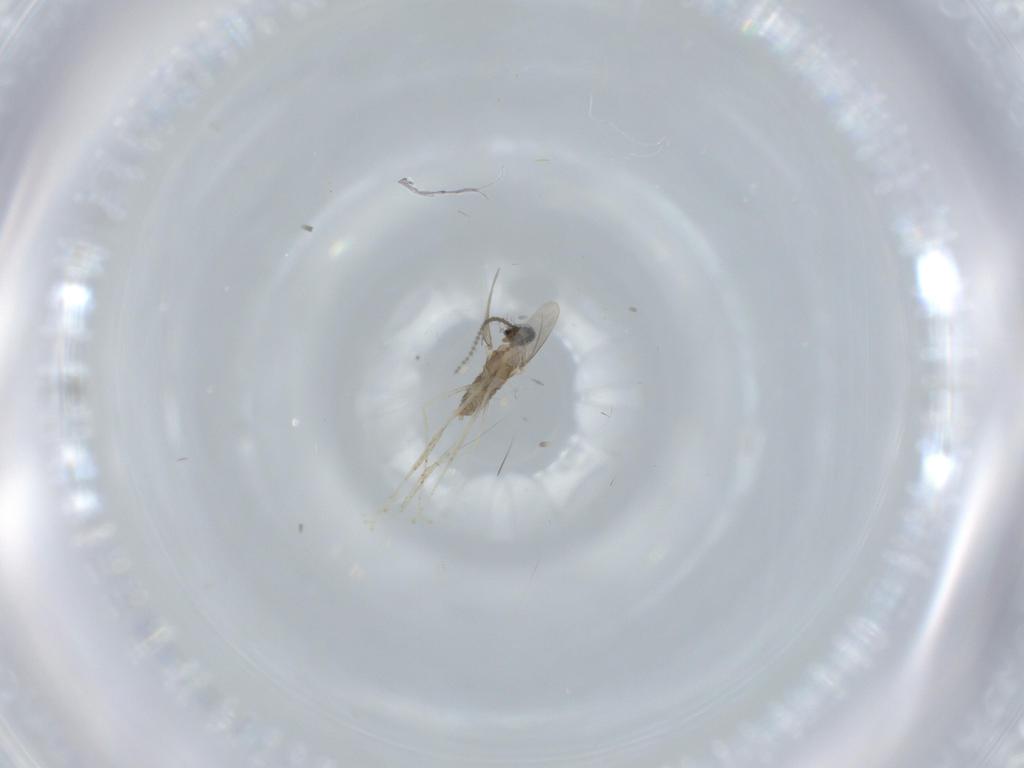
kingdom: Animalia
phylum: Arthropoda
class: Insecta
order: Diptera
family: Cecidomyiidae
